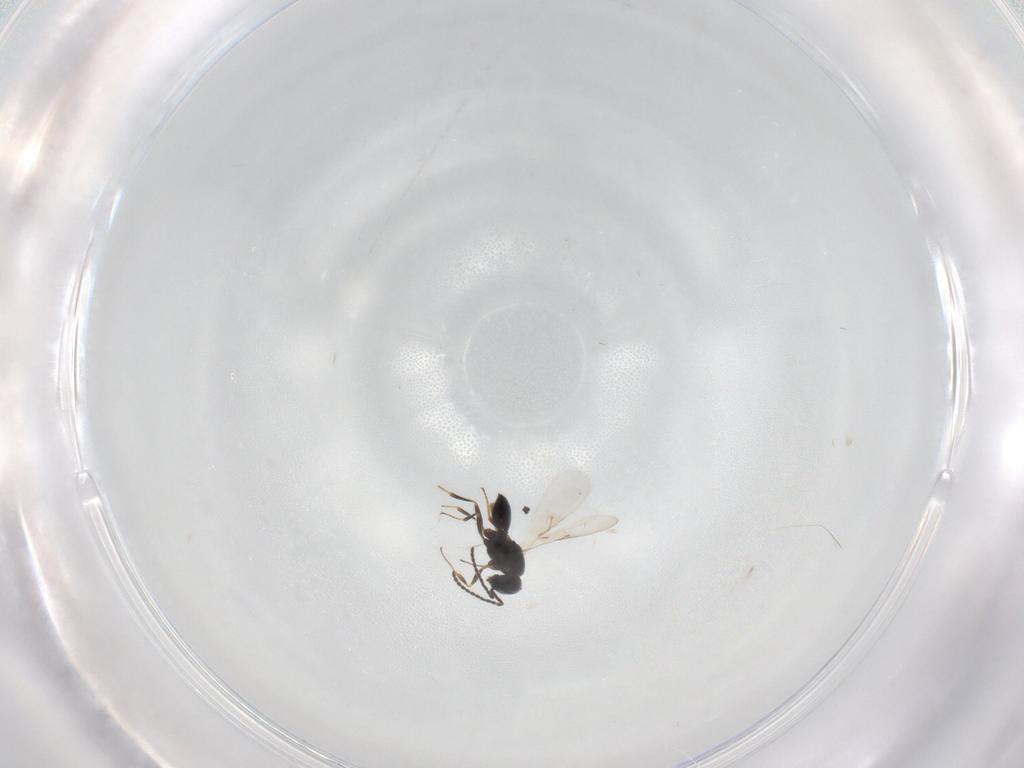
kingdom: Animalia
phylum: Arthropoda
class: Insecta
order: Hymenoptera
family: Scelionidae
